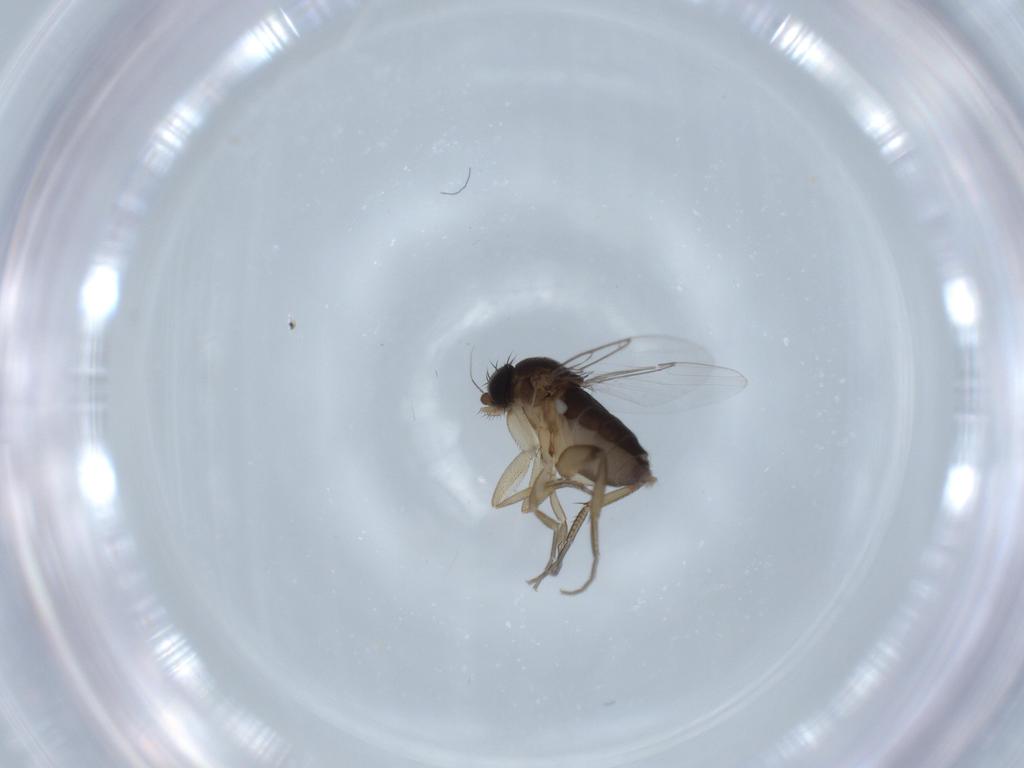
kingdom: Animalia
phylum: Arthropoda
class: Insecta
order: Diptera
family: Phoridae
